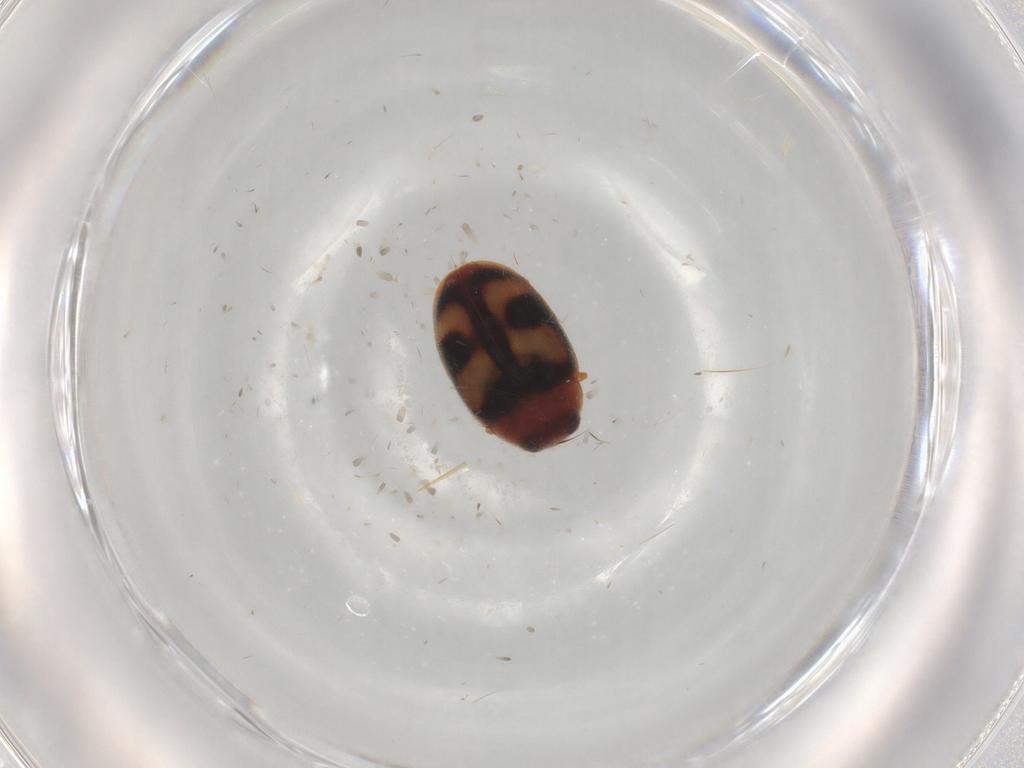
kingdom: Animalia
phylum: Arthropoda
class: Insecta
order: Coleoptera
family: Coccinellidae
